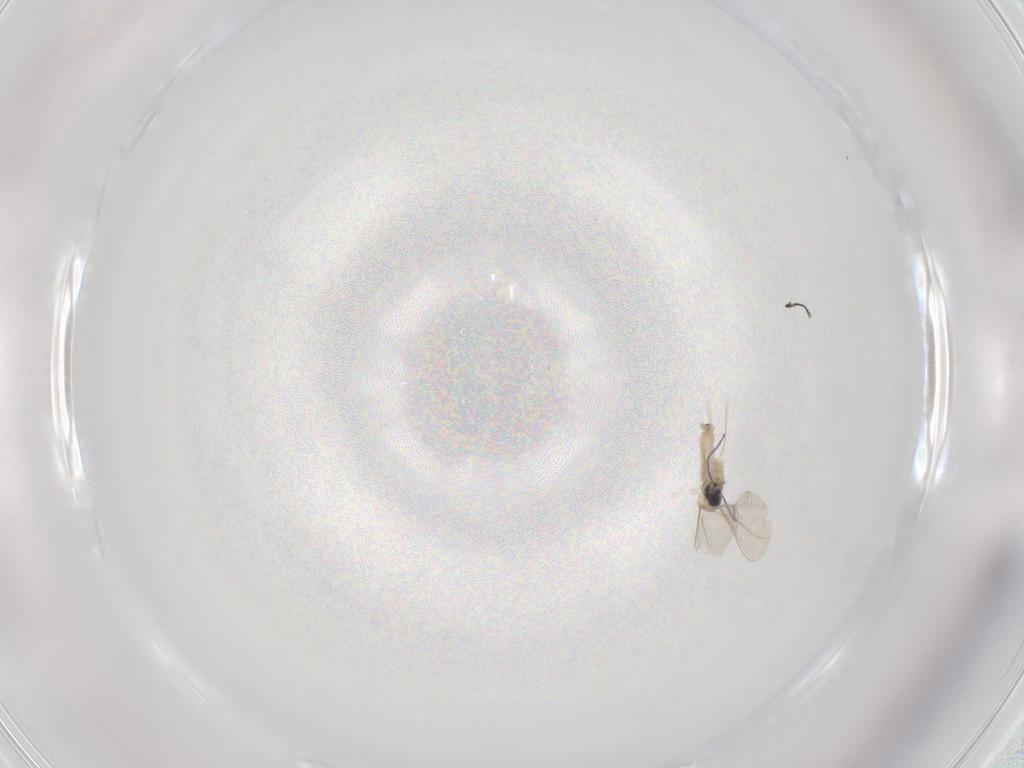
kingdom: Animalia
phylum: Arthropoda
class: Insecta
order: Diptera
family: Cecidomyiidae
